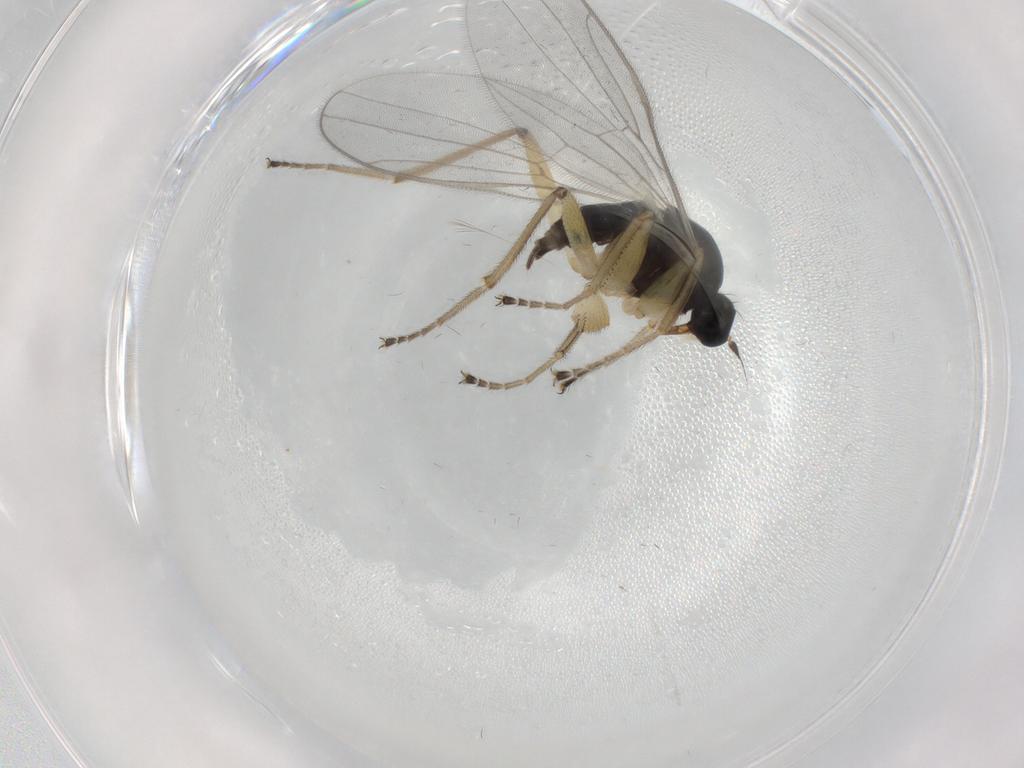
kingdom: Animalia
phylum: Arthropoda
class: Insecta
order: Diptera
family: Hybotidae
